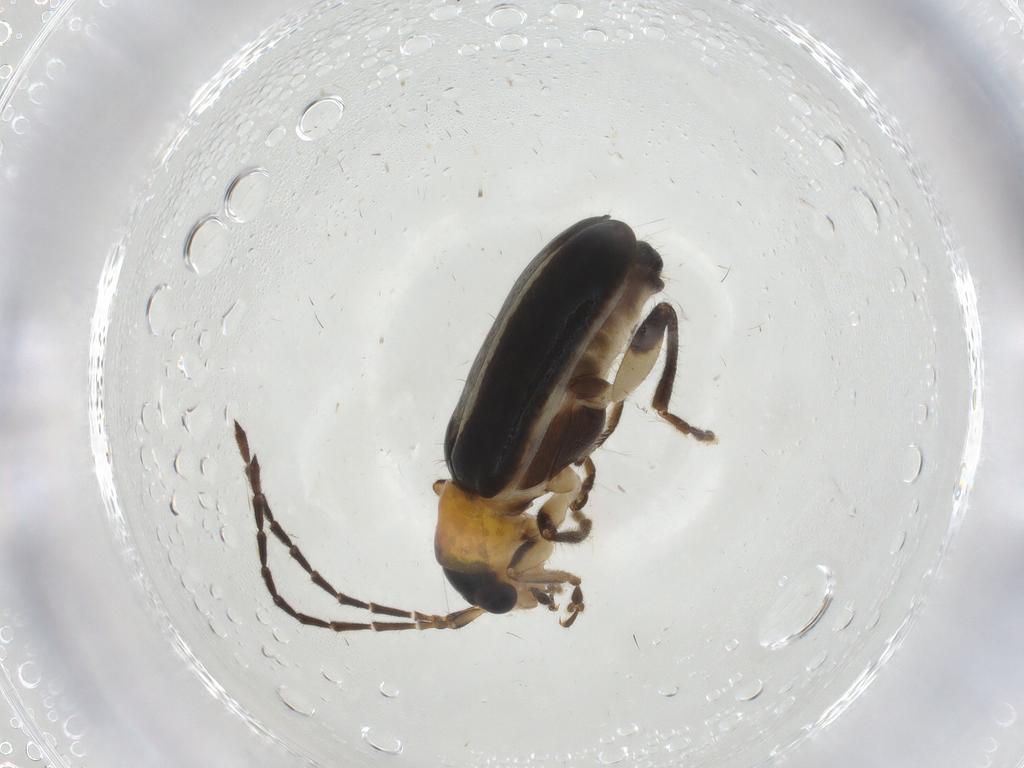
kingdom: Animalia
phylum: Arthropoda
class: Insecta
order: Coleoptera
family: Chrysomelidae
